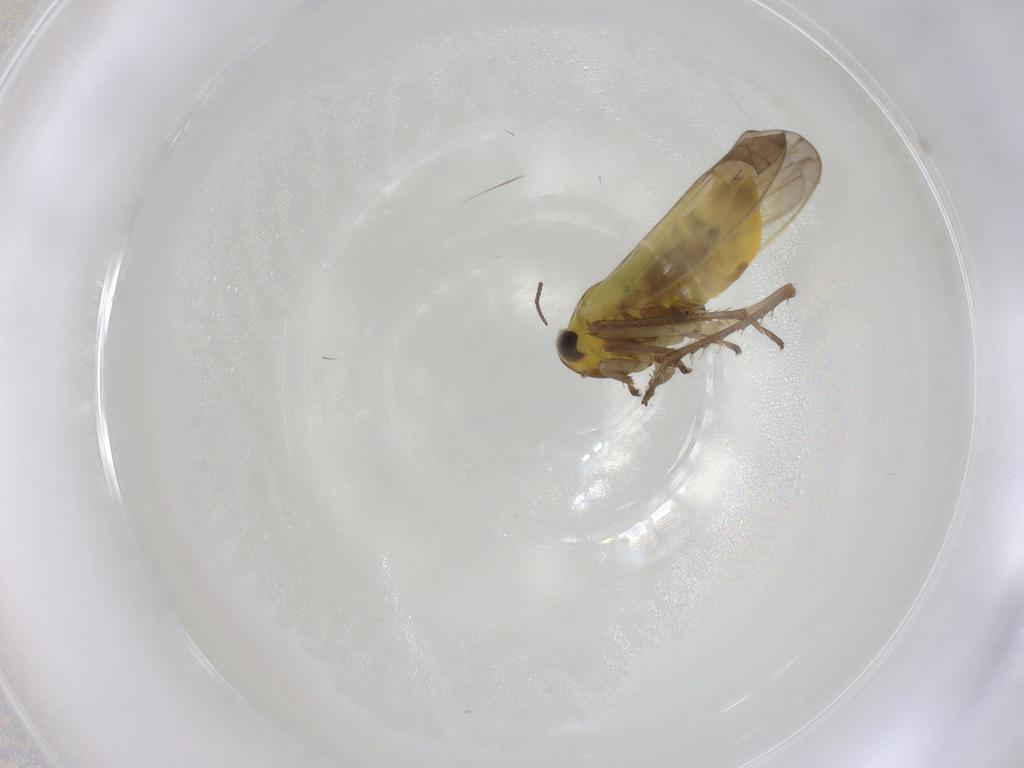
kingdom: Animalia
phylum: Arthropoda
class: Insecta
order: Hemiptera
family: Cicadellidae
